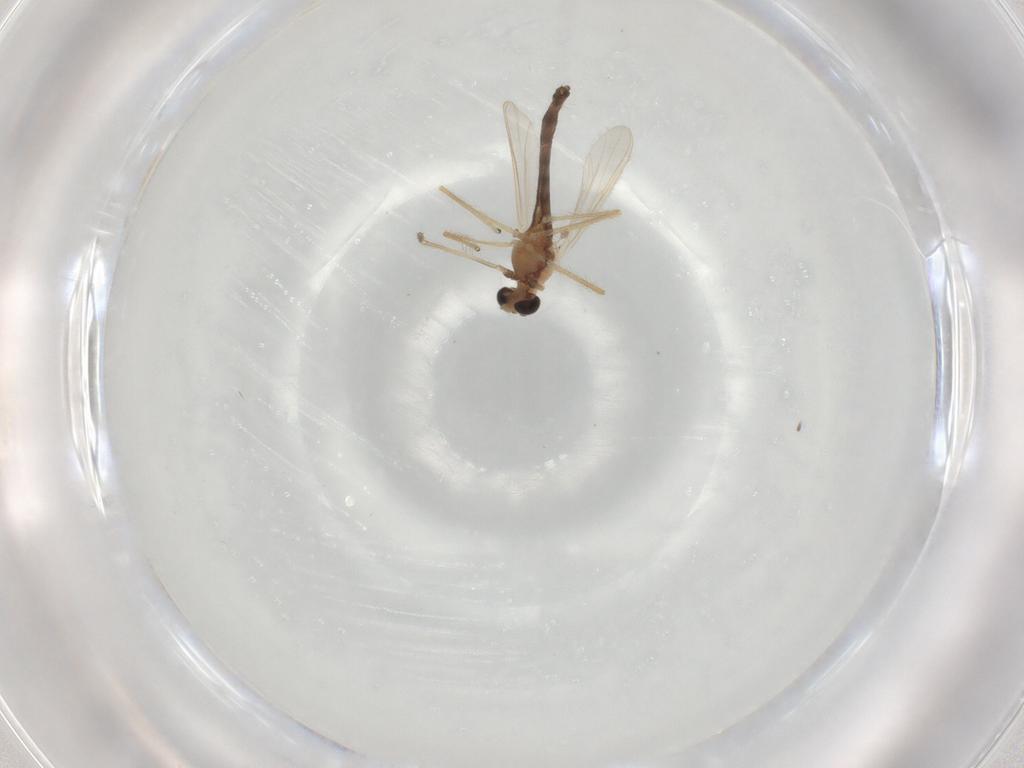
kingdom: Animalia
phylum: Arthropoda
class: Insecta
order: Diptera
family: Chironomidae
